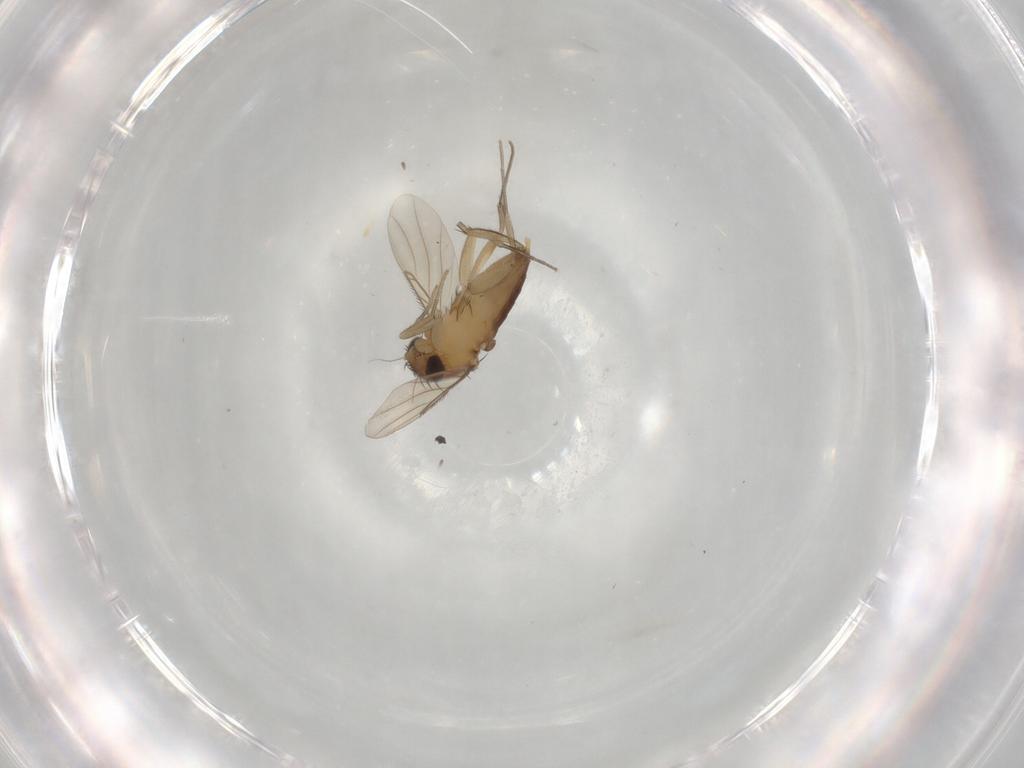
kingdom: Animalia
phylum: Arthropoda
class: Insecta
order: Diptera
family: Phoridae
